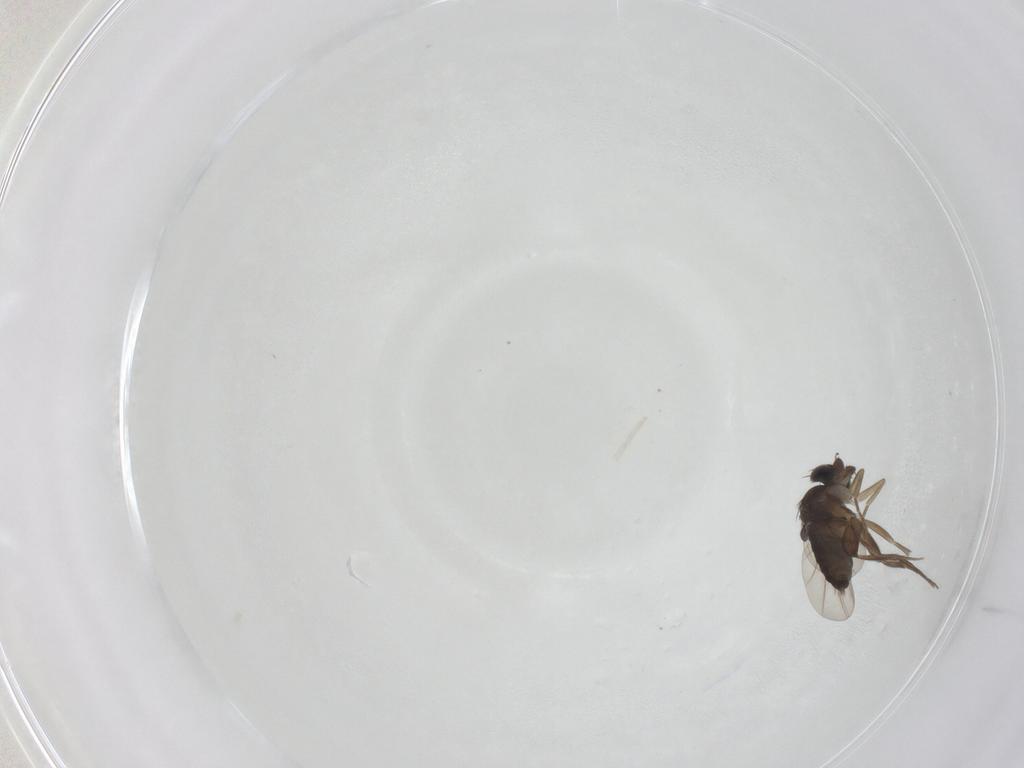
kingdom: Animalia
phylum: Arthropoda
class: Insecta
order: Diptera
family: Phoridae
